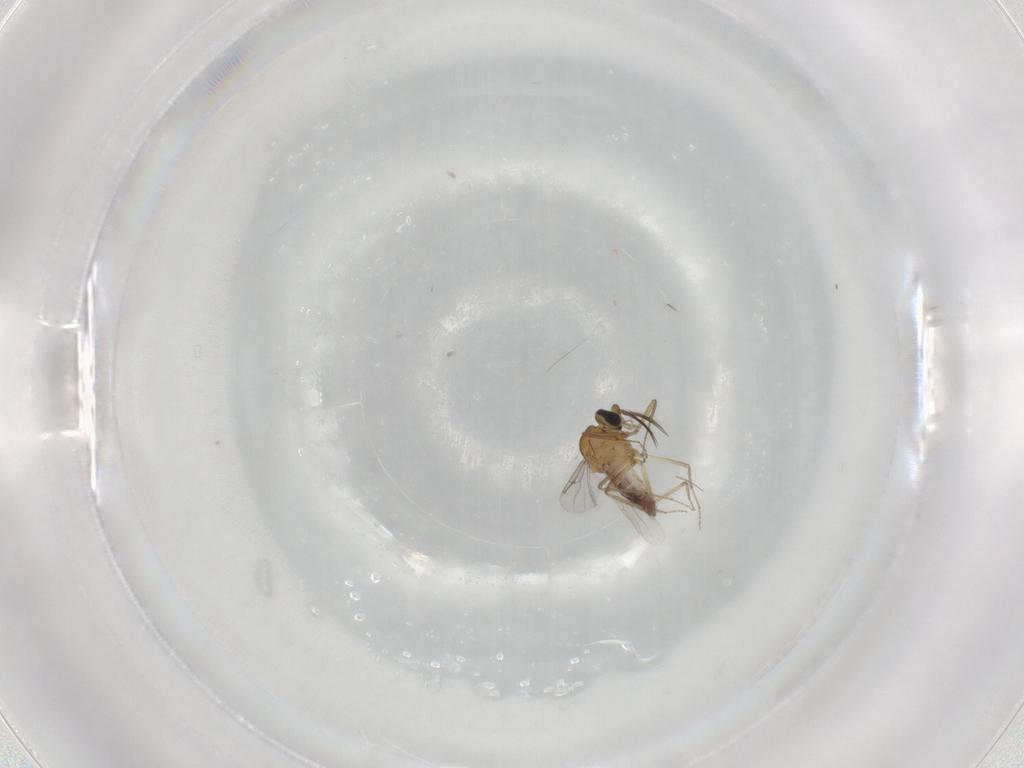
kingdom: Animalia
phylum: Arthropoda
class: Insecta
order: Diptera
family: Ceratopogonidae
